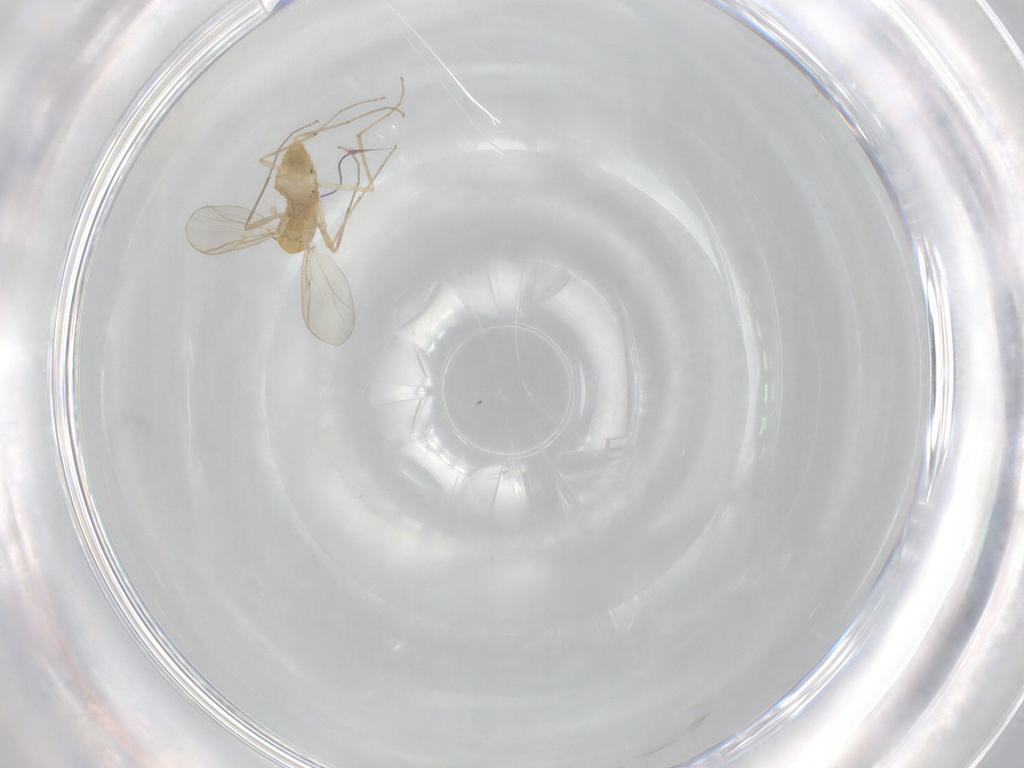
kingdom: Animalia
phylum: Arthropoda
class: Insecta
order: Diptera
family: Chironomidae
